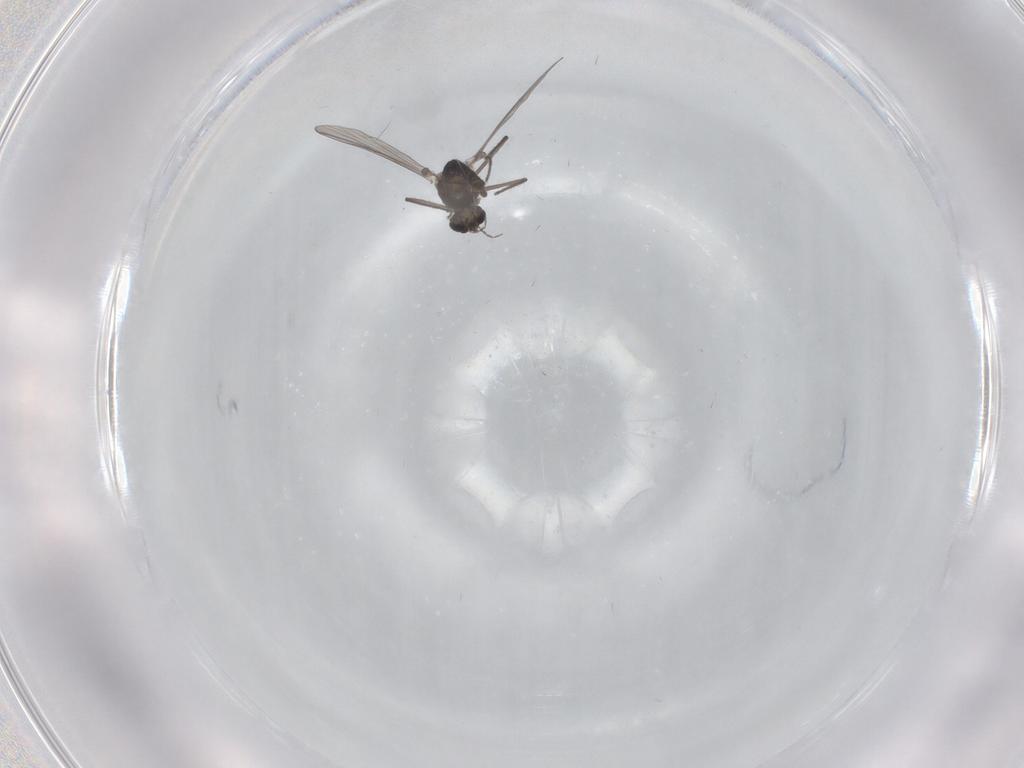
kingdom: Animalia
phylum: Arthropoda
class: Insecta
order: Diptera
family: Chironomidae
